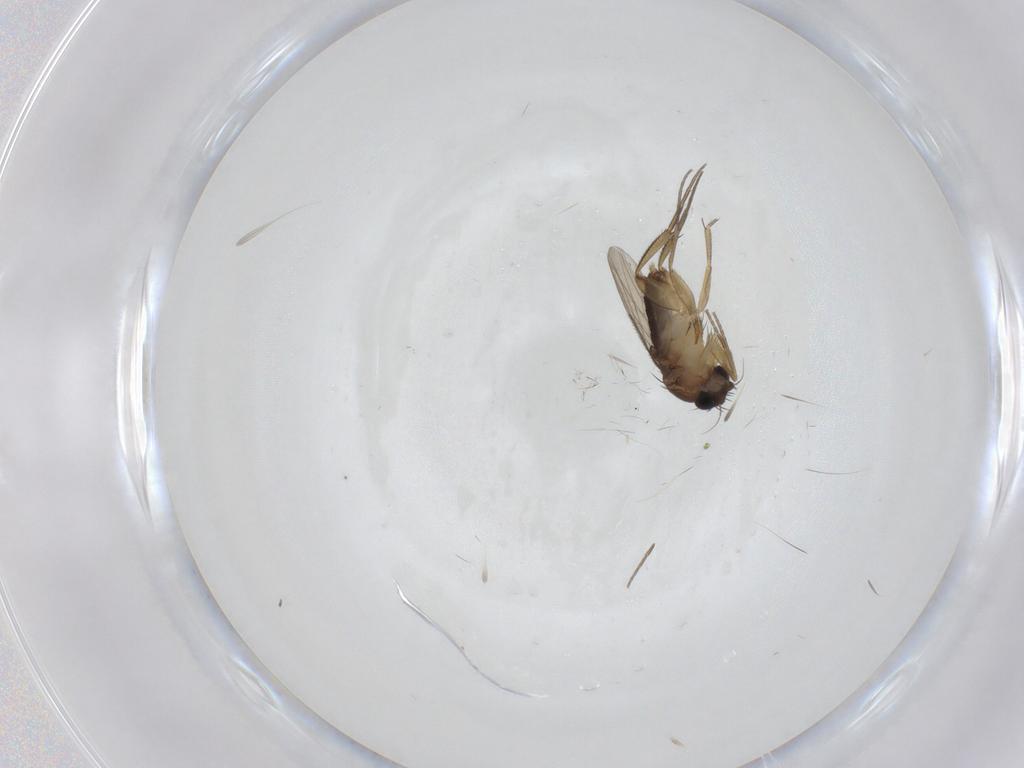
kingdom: Animalia
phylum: Arthropoda
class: Insecta
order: Diptera
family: Phoridae
